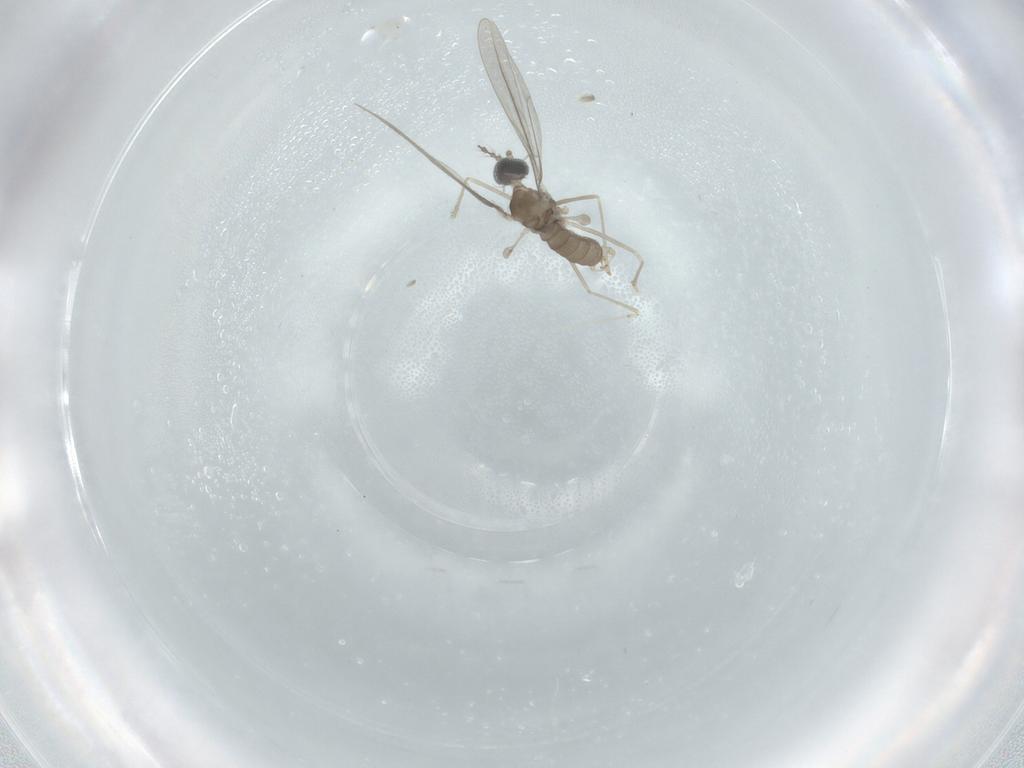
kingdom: Animalia
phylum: Arthropoda
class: Insecta
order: Diptera
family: Cecidomyiidae
